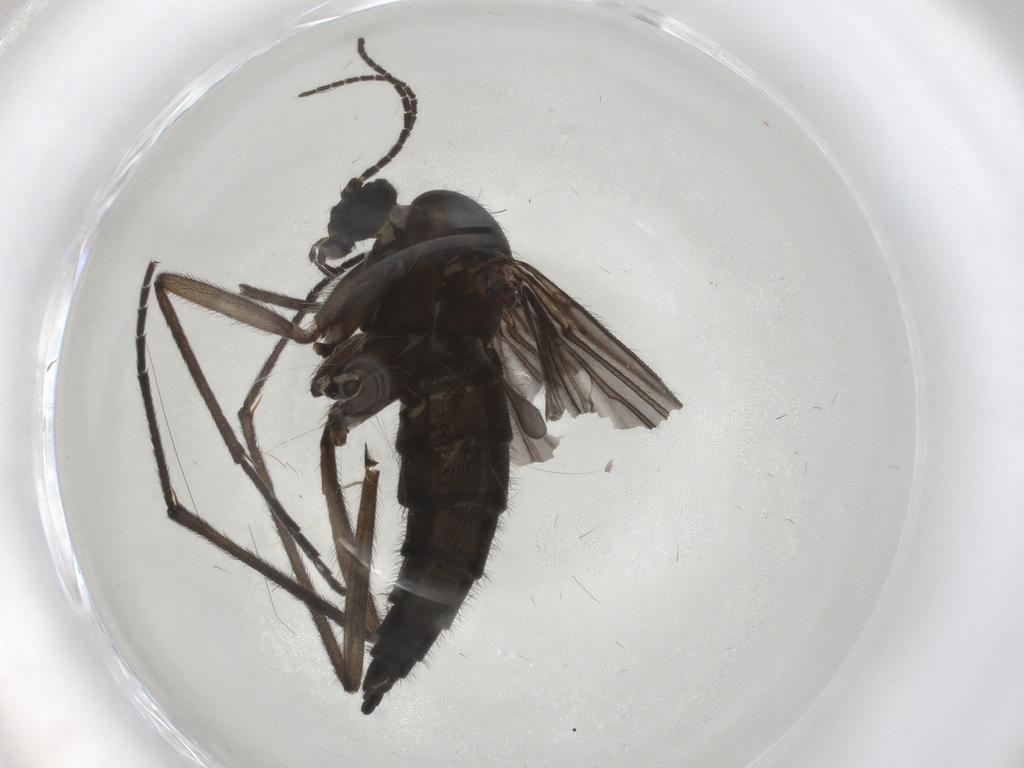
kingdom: Animalia
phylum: Arthropoda
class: Insecta
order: Diptera
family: Sciaridae
